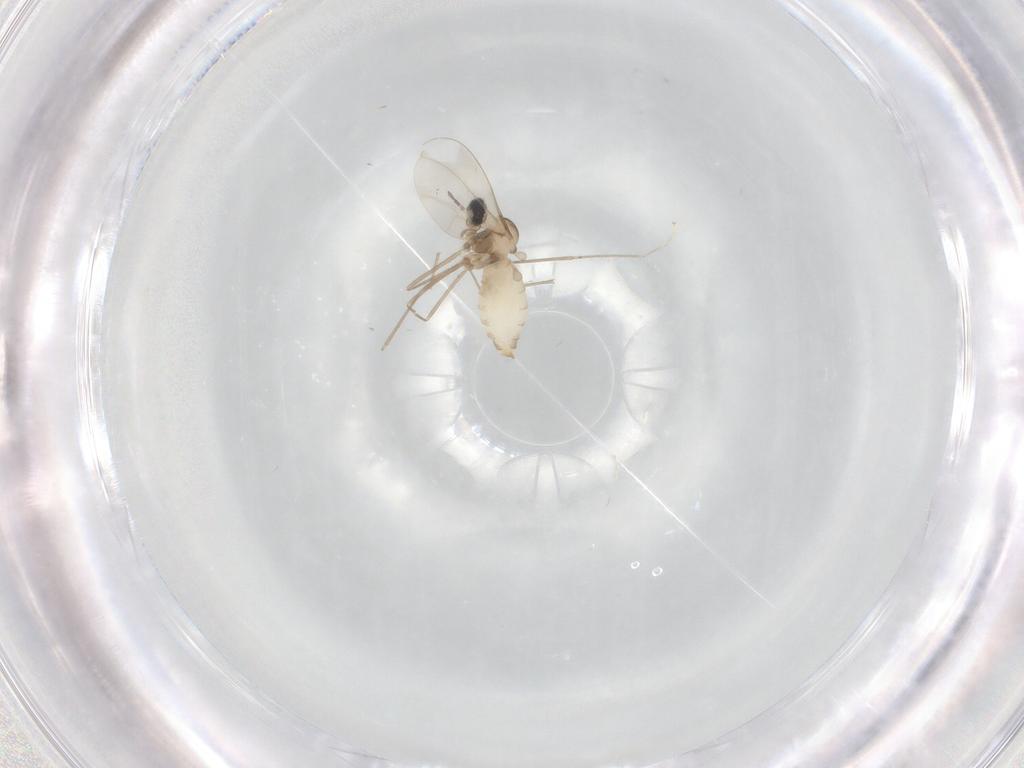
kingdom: Animalia
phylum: Arthropoda
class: Insecta
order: Diptera
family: Cecidomyiidae
